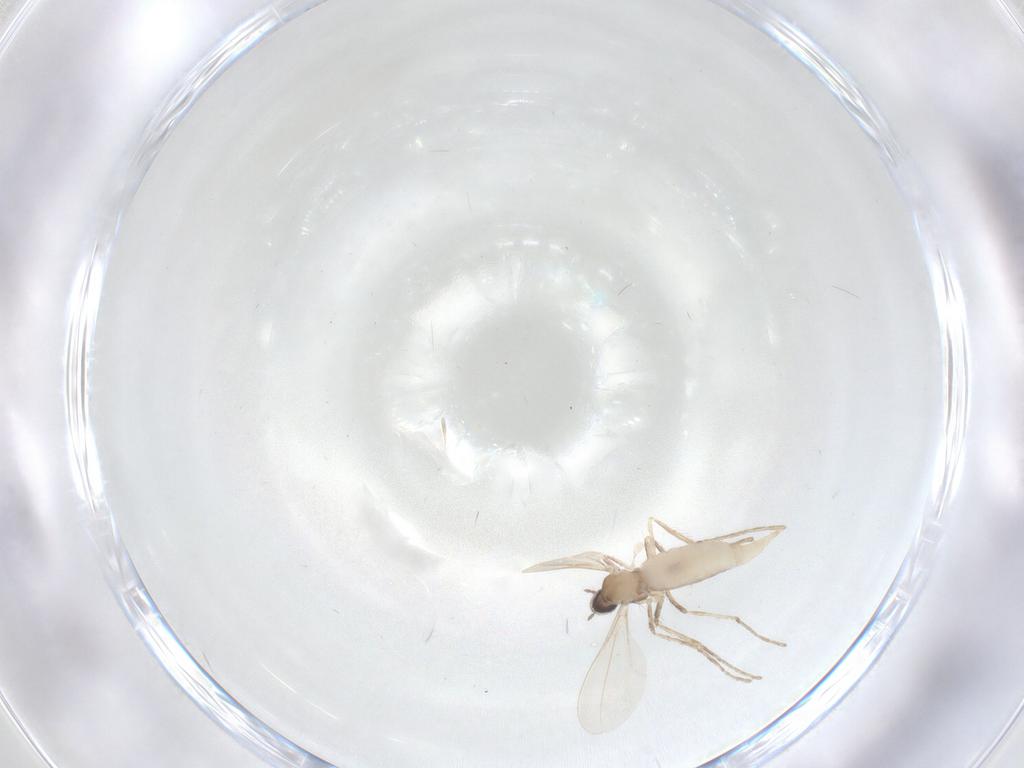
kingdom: Animalia
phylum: Arthropoda
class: Insecta
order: Diptera
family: Cecidomyiidae
